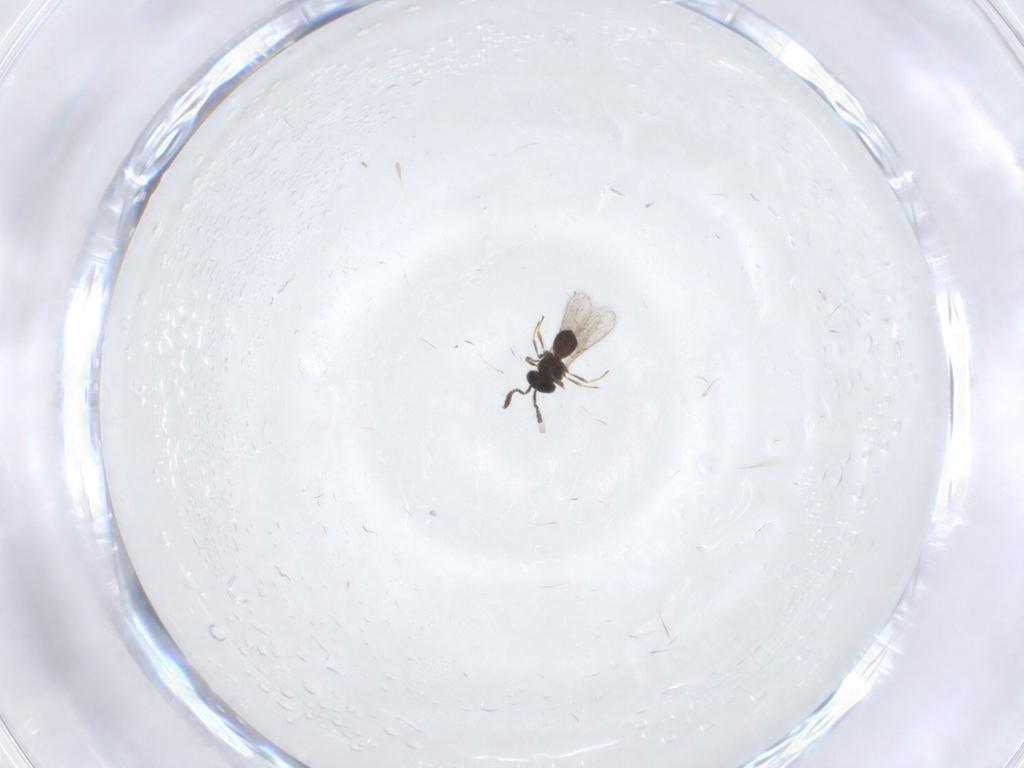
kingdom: Animalia
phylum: Arthropoda
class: Insecta
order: Hymenoptera
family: Scelionidae
